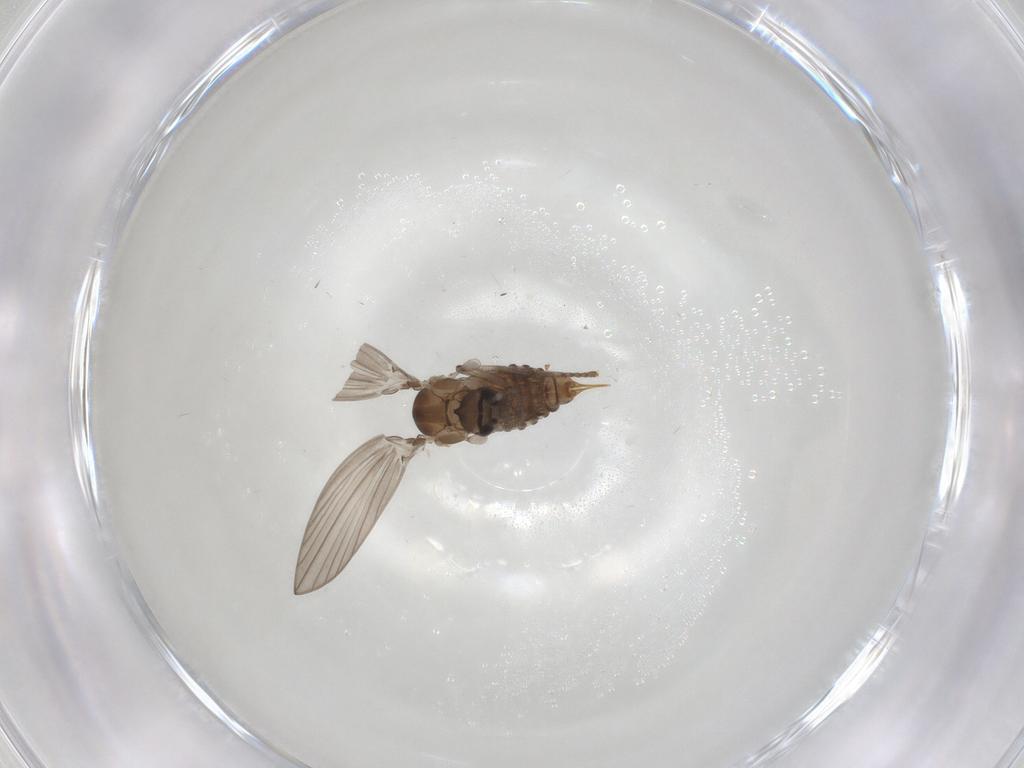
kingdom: Animalia
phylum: Arthropoda
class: Insecta
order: Diptera
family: Psychodidae
